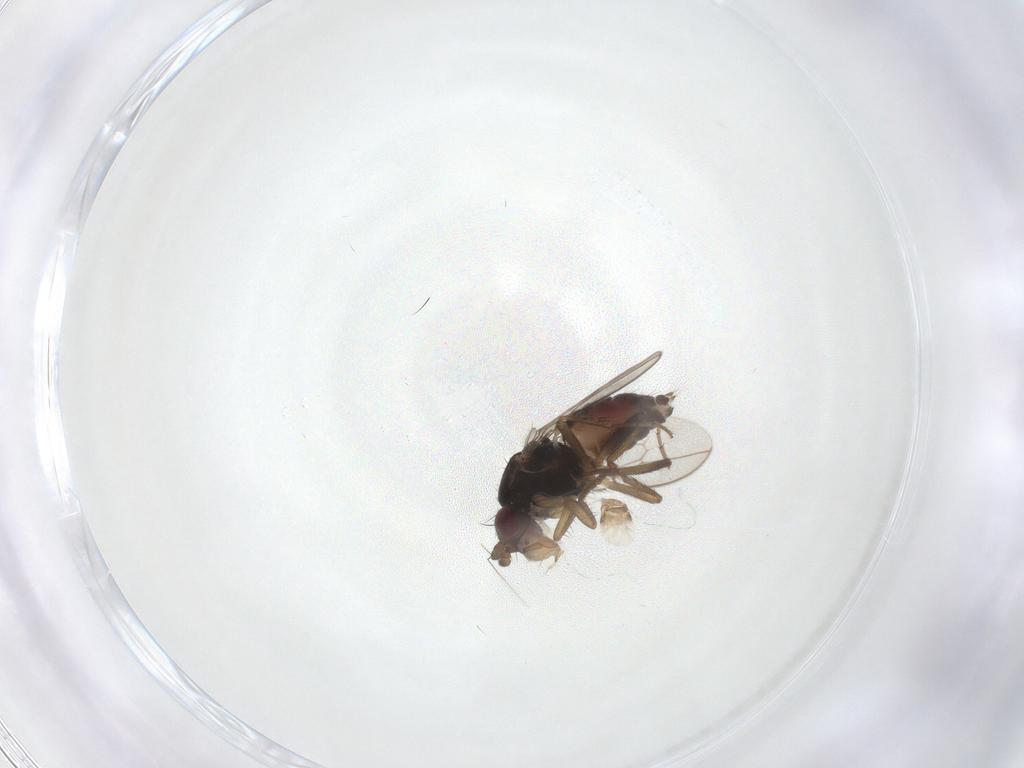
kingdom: Animalia
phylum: Arthropoda
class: Insecta
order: Diptera
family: Sphaeroceridae
